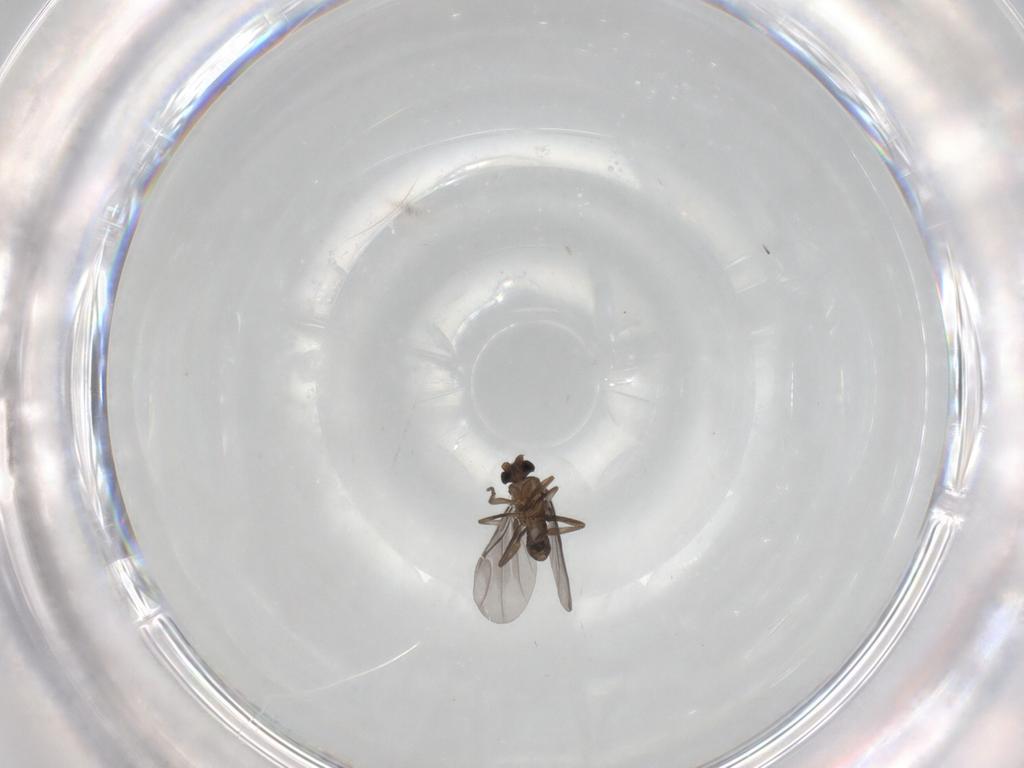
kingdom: Animalia
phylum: Arthropoda
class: Insecta
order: Diptera
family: Phoridae
